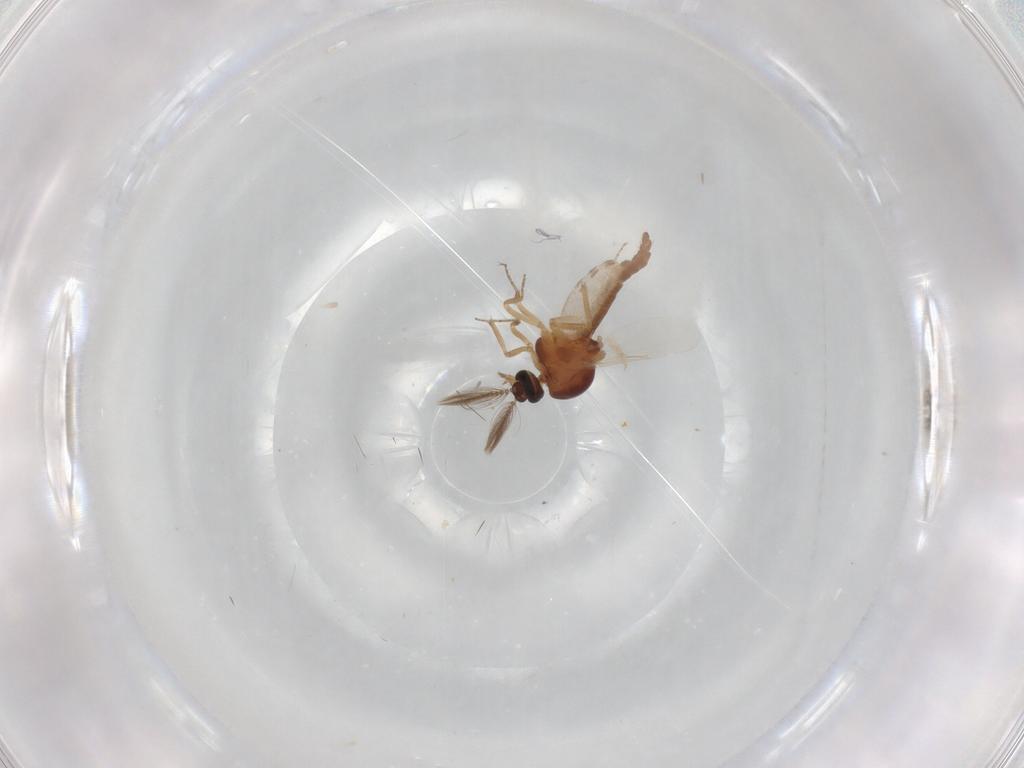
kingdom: Animalia
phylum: Arthropoda
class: Insecta
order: Diptera
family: Ceratopogonidae
